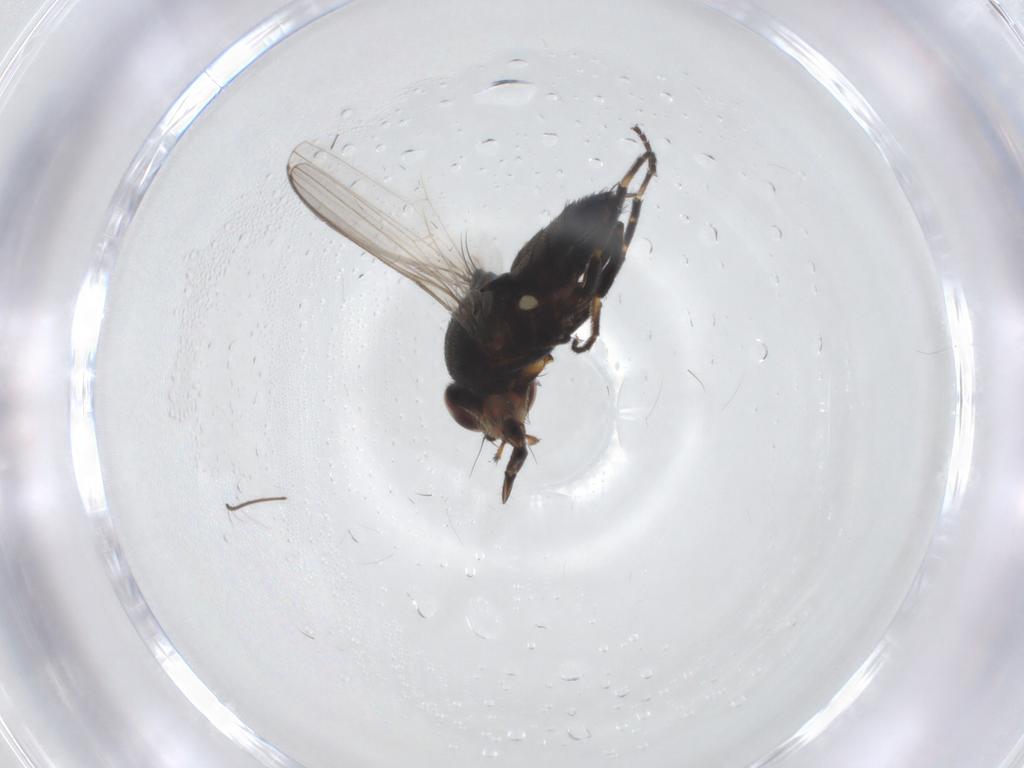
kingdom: Animalia
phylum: Arthropoda
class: Insecta
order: Diptera
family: Milichiidae
